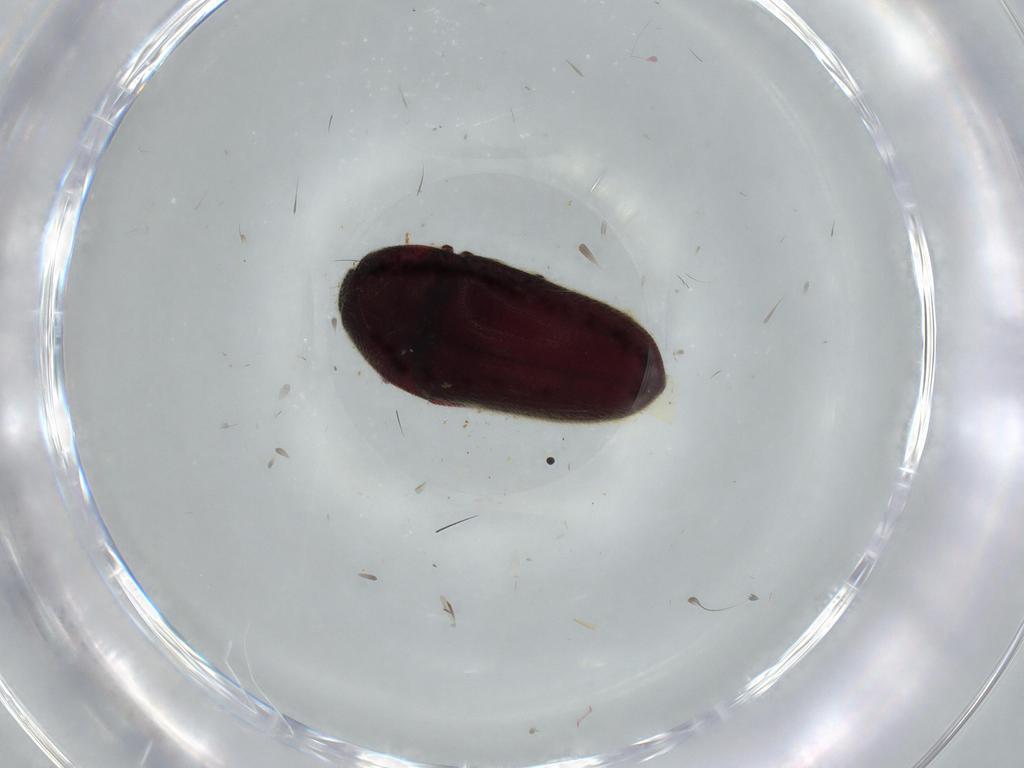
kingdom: Animalia
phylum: Arthropoda
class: Insecta
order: Coleoptera
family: Throscidae
